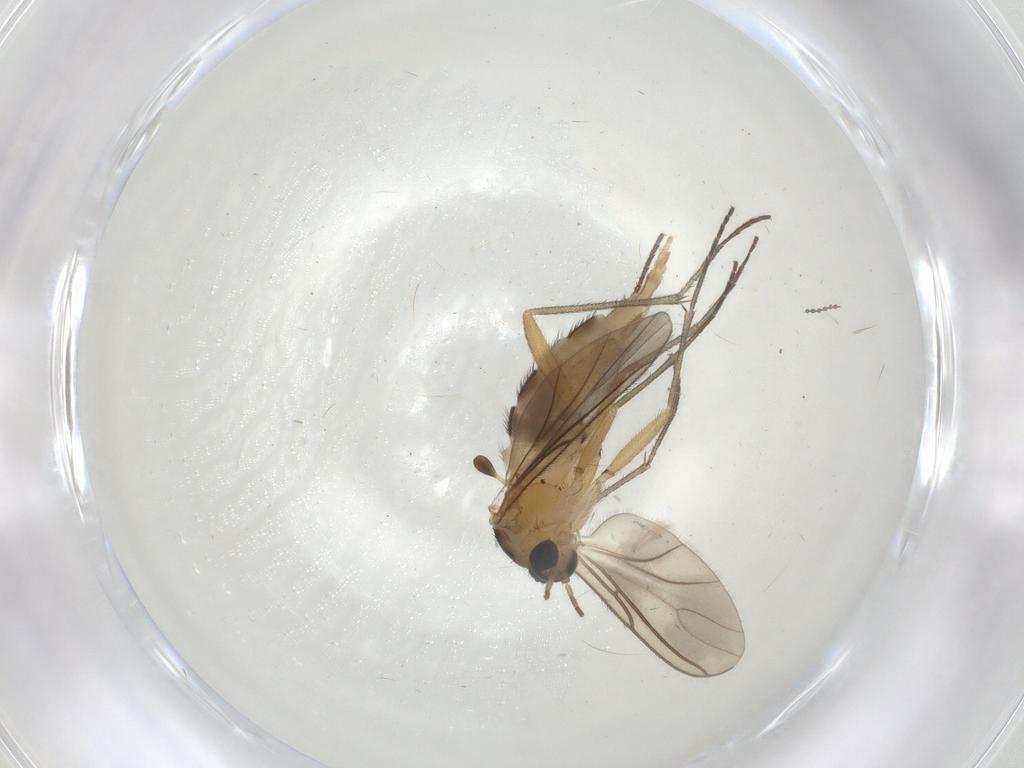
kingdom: Animalia
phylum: Arthropoda
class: Insecta
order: Diptera
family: Sciaridae
